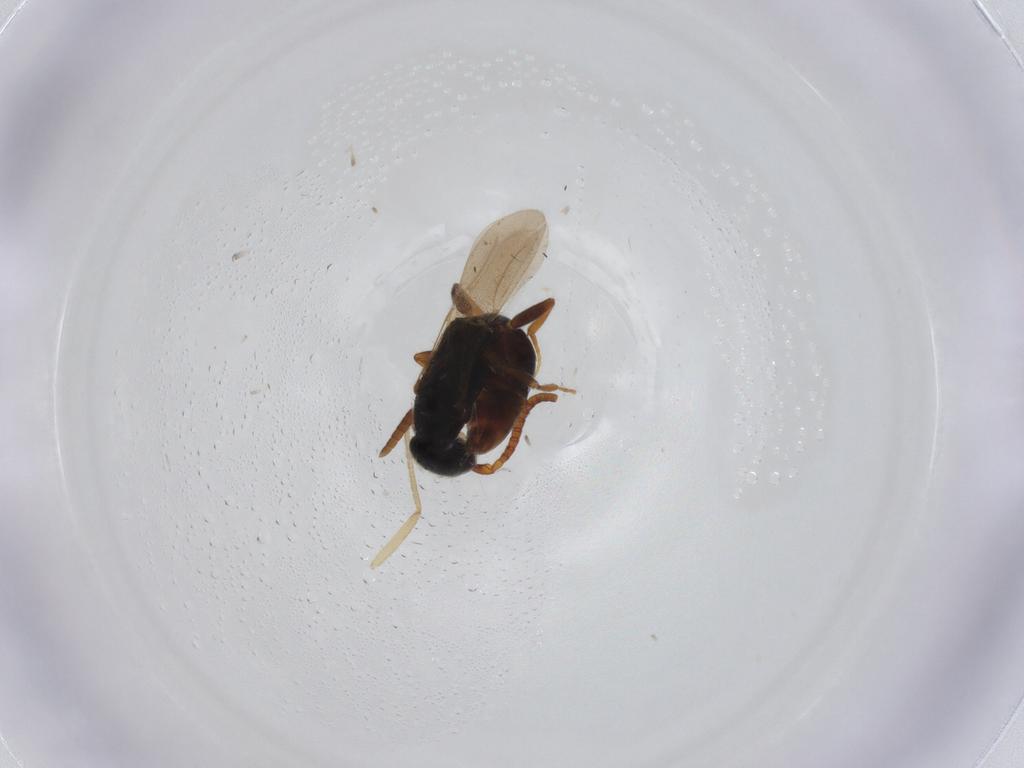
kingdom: Animalia
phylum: Arthropoda
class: Insecta
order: Hymenoptera
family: Bethylidae
